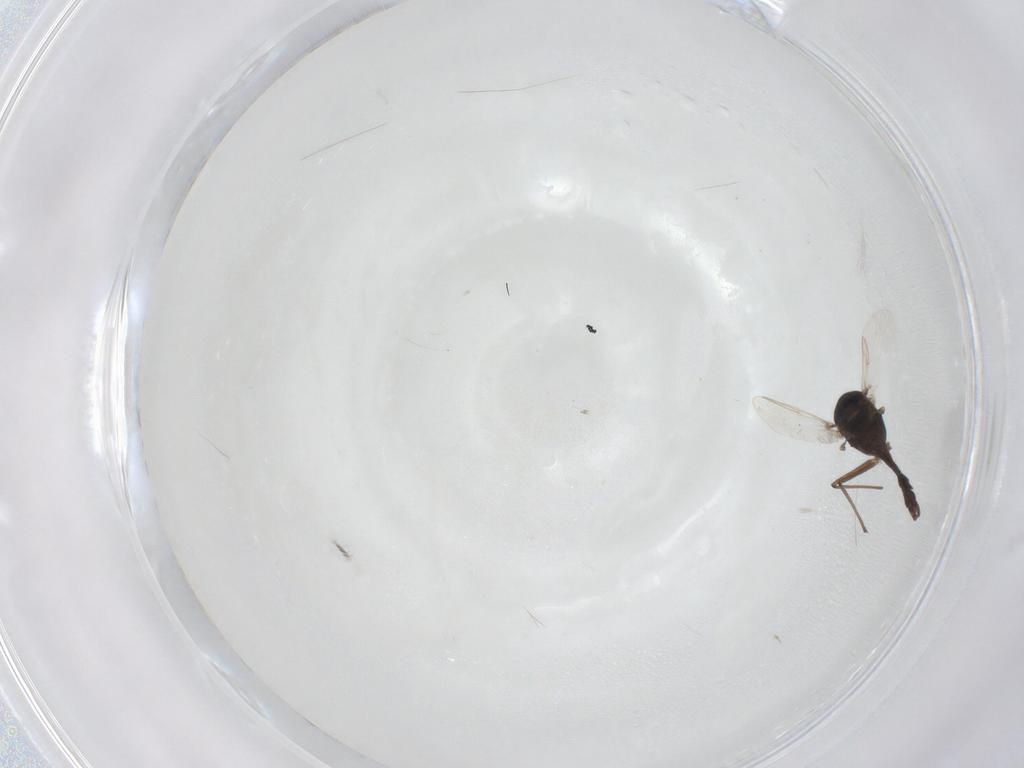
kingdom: Animalia
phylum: Arthropoda
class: Insecta
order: Diptera
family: Chironomidae
